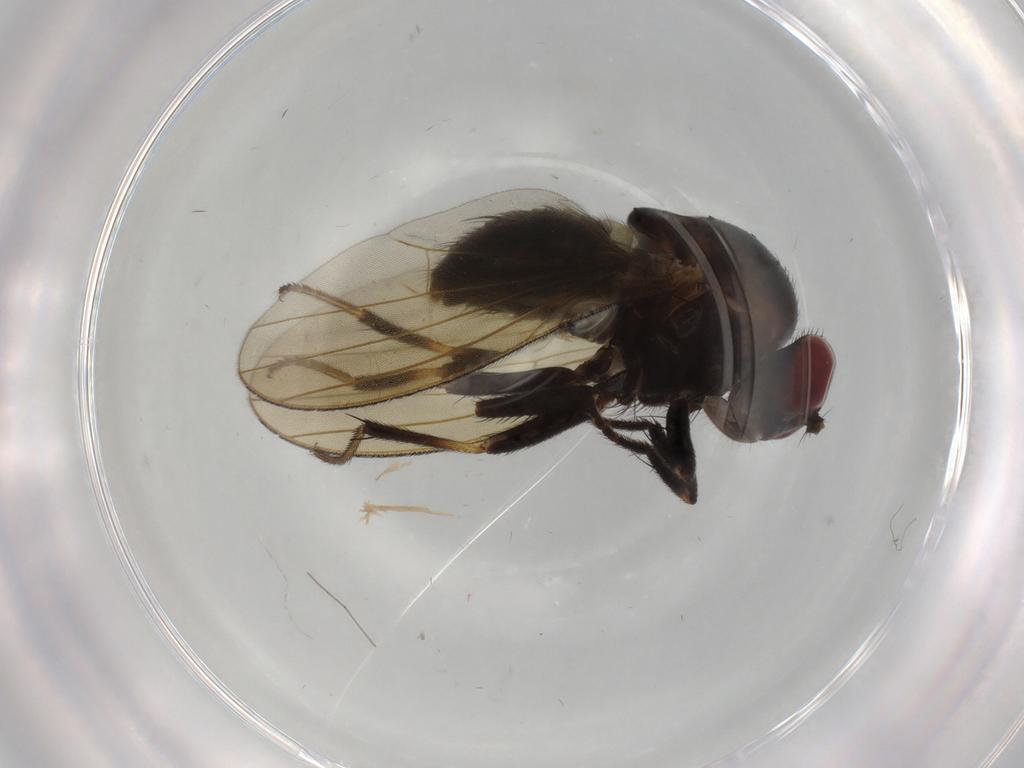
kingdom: Animalia
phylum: Arthropoda
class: Insecta
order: Diptera
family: Cecidomyiidae
